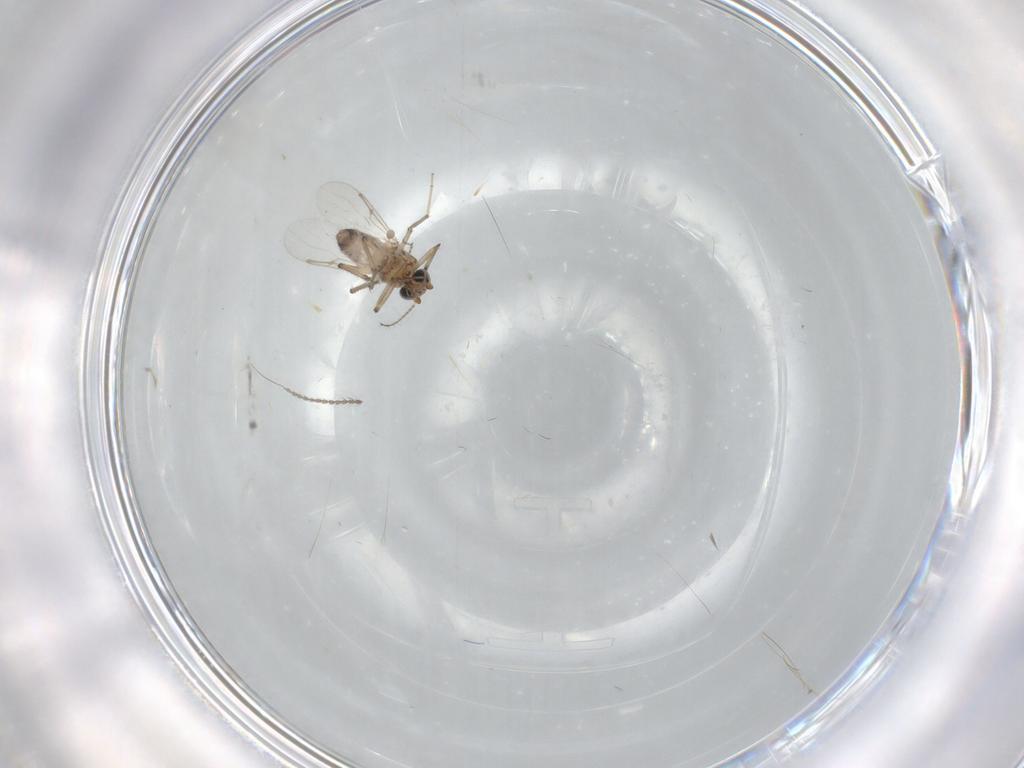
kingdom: Animalia
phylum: Arthropoda
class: Insecta
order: Diptera
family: Cecidomyiidae
